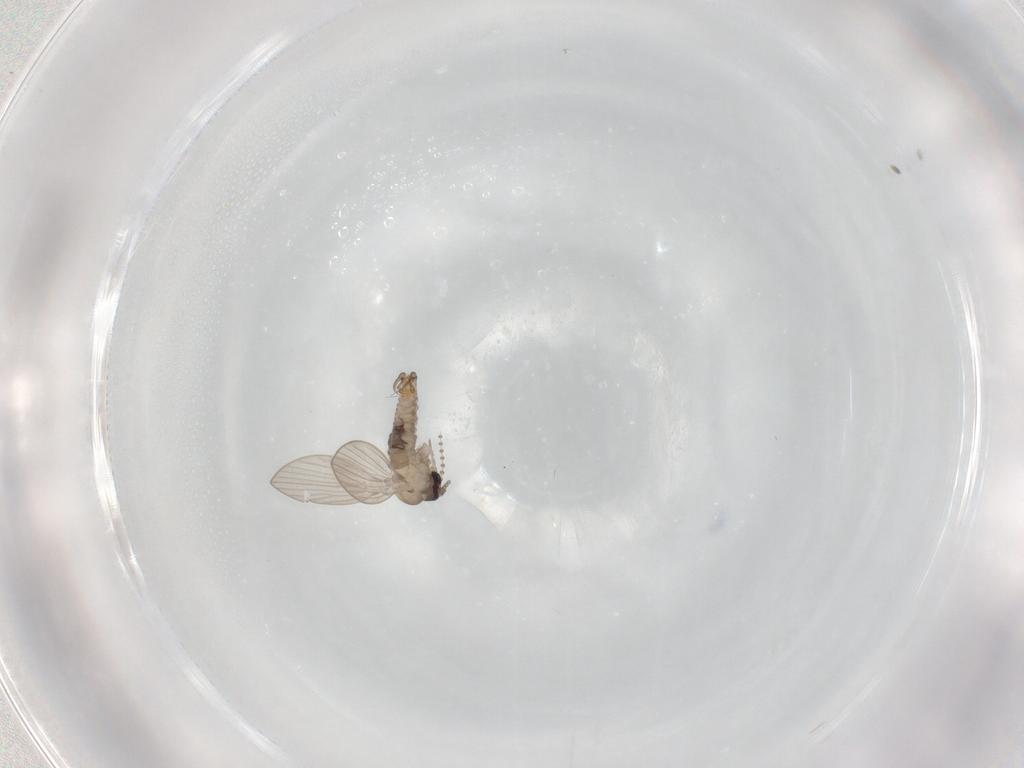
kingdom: Animalia
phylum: Arthropoda
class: Insecta
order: Diptera
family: Psychodidae
